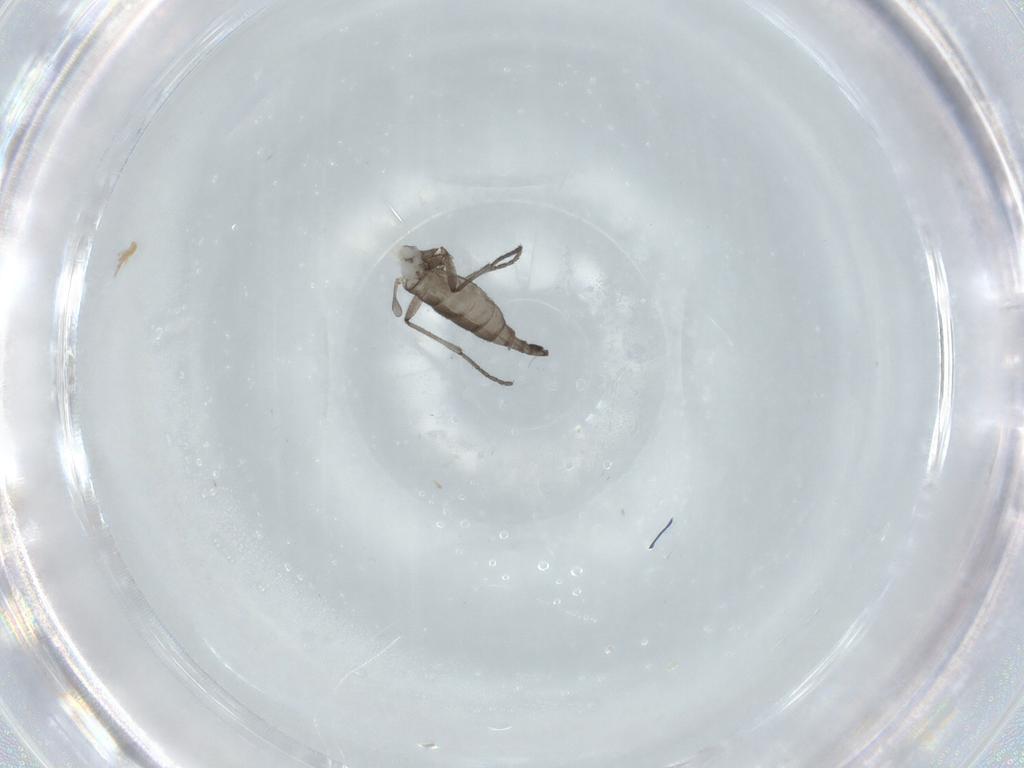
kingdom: Animalia
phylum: Arthropoda
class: Insecta
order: Diptera
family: Sciaridae
